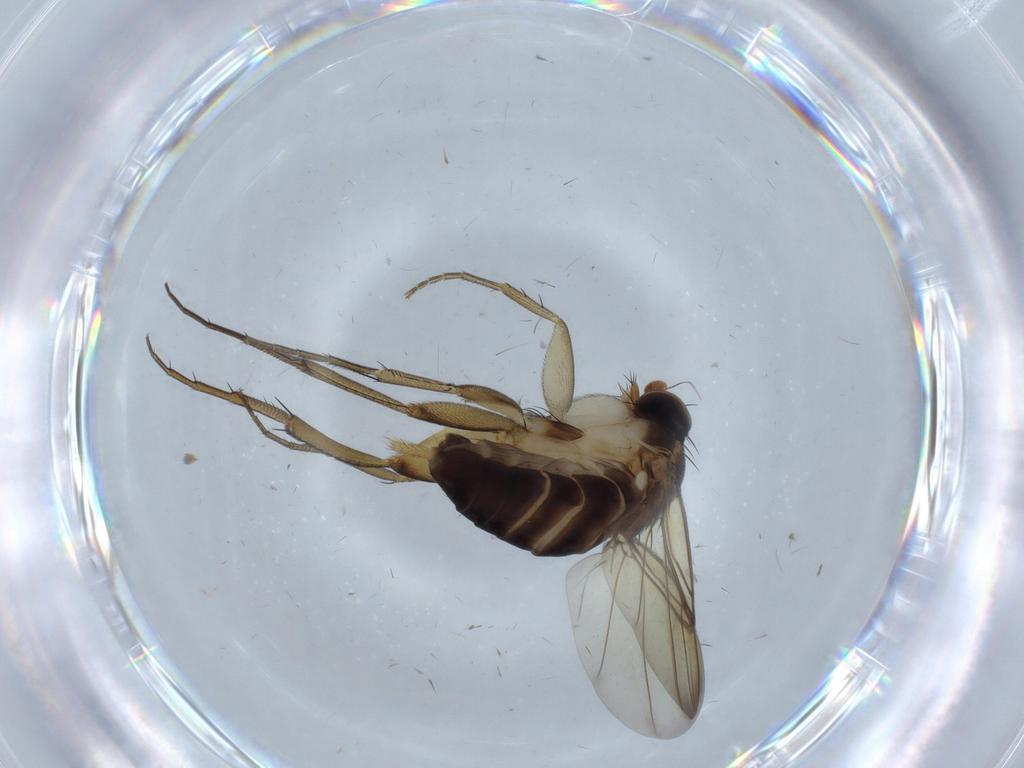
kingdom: Animalia
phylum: Arthropoda
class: Insecta
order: Diptera
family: Phoridae
